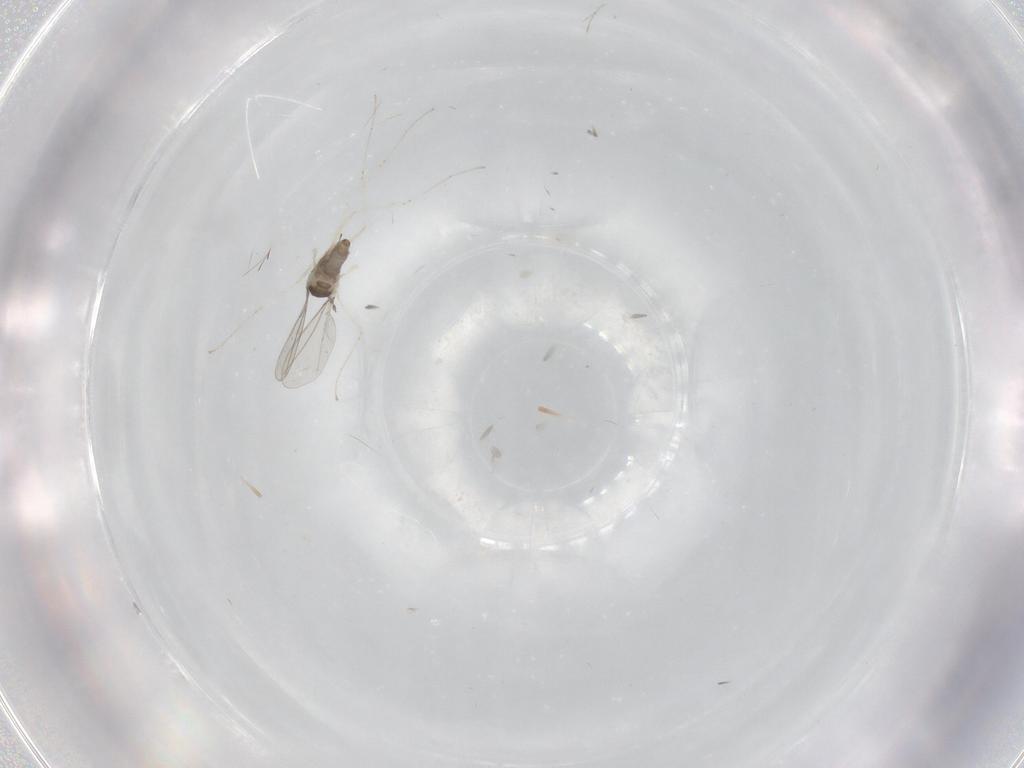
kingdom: Animalia
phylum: Arthropoda
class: Insecta
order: Diptera
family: Cecidomyiidae
